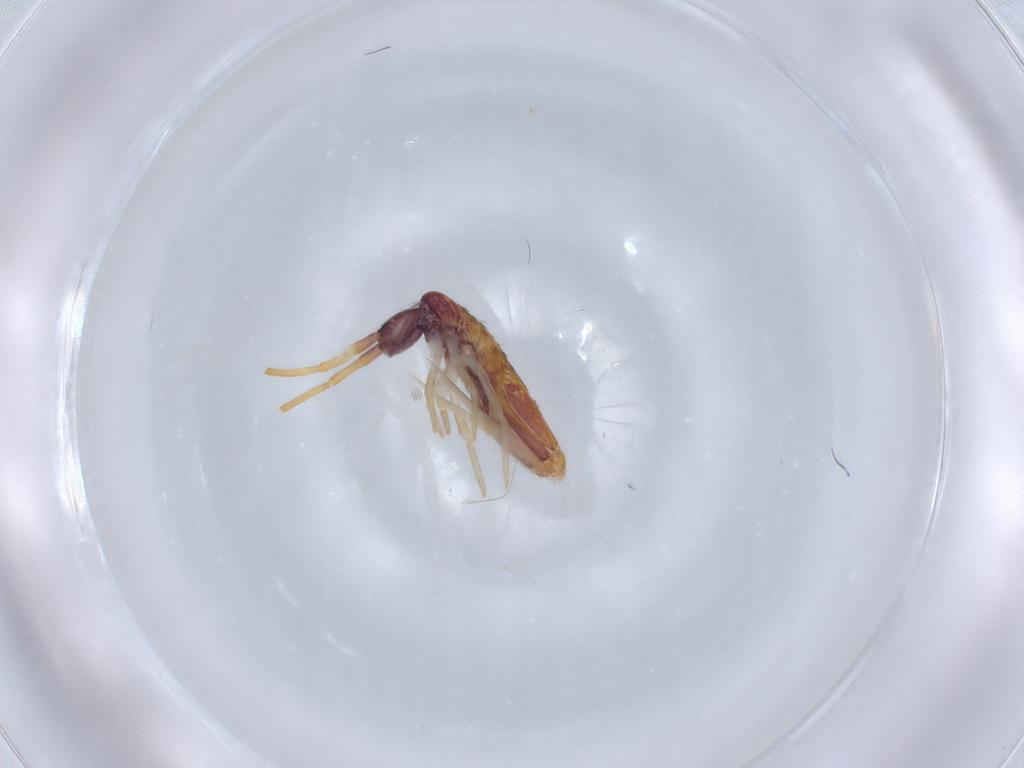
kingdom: Animalia
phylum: Arthropoda
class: Collembola
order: Entomobryomorpha
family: Entomobryidae
